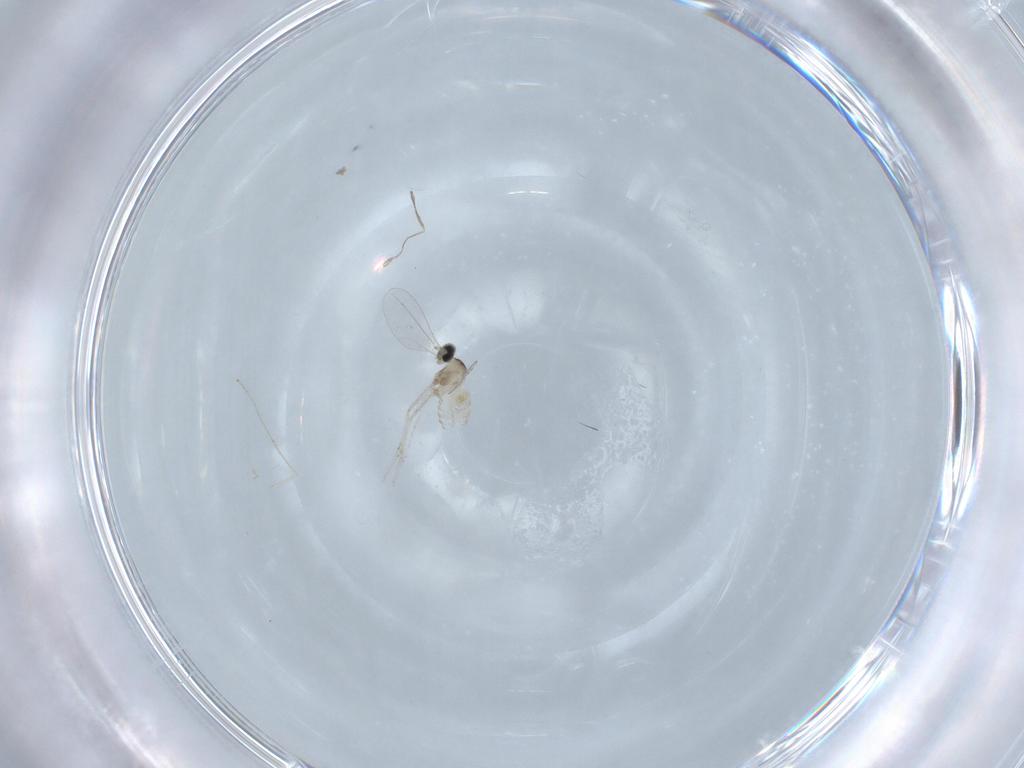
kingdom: Animalia
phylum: Arthropoda
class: Insecta
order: Diptera
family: Cecidomyiidae
